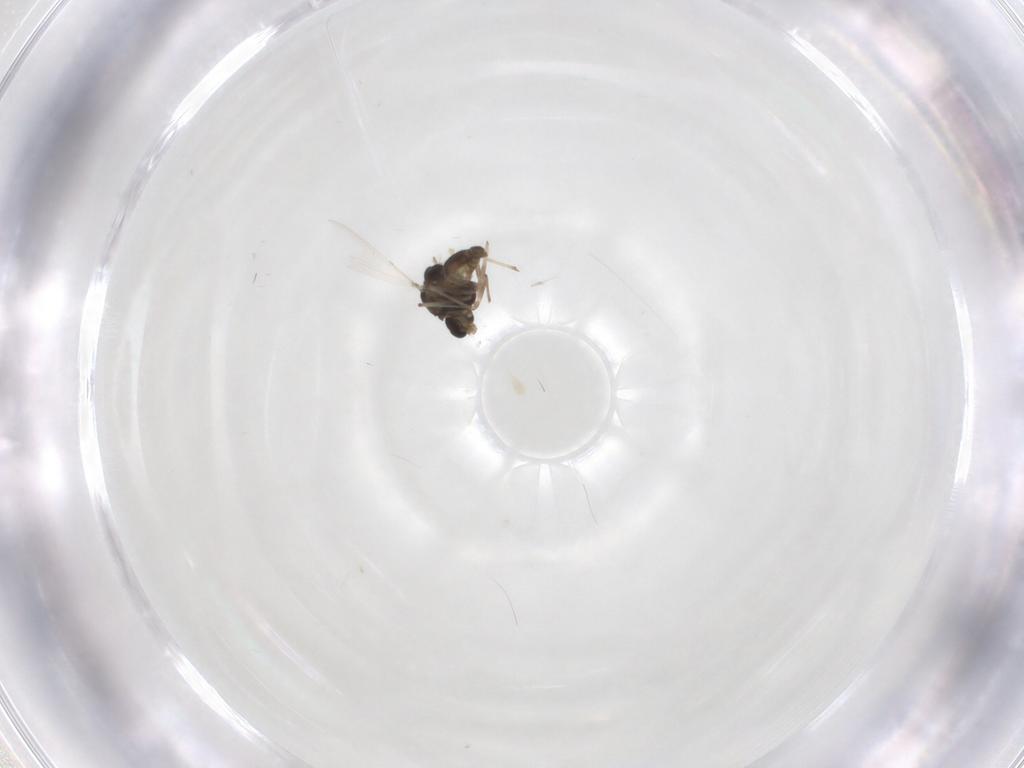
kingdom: Animalia
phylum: Arthropoda
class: Insecta
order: Diptera
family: Chironomidae
